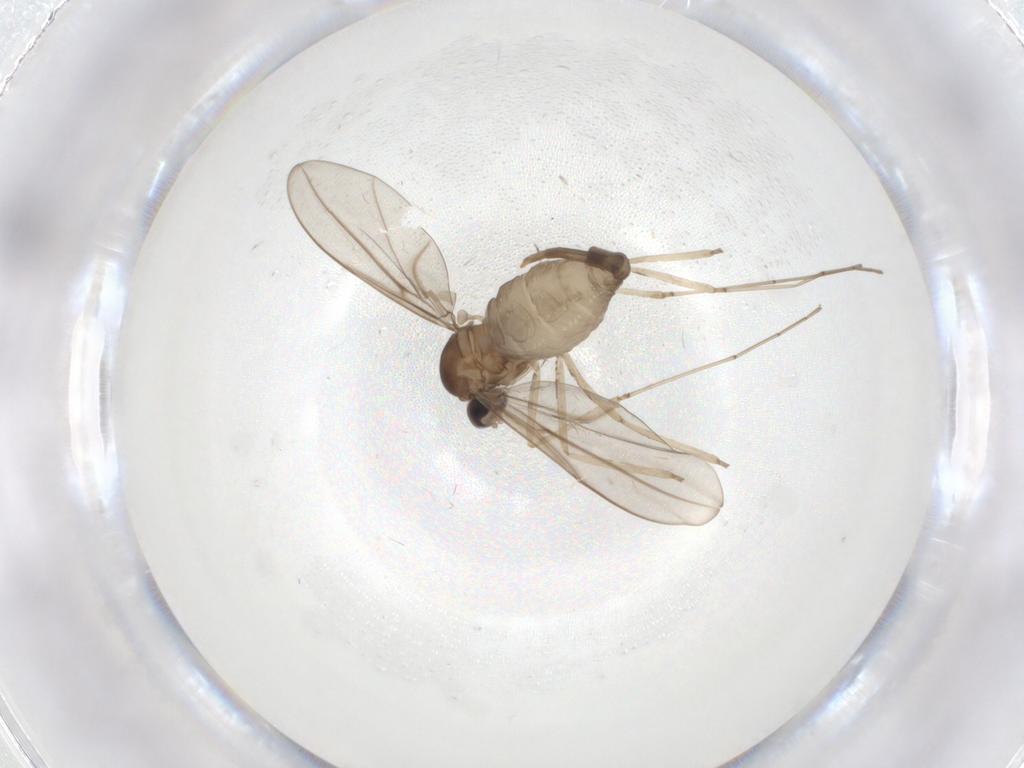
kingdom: Animalia
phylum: Arthropoda
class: Insecta
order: Diptera
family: Cecidomyiidae
